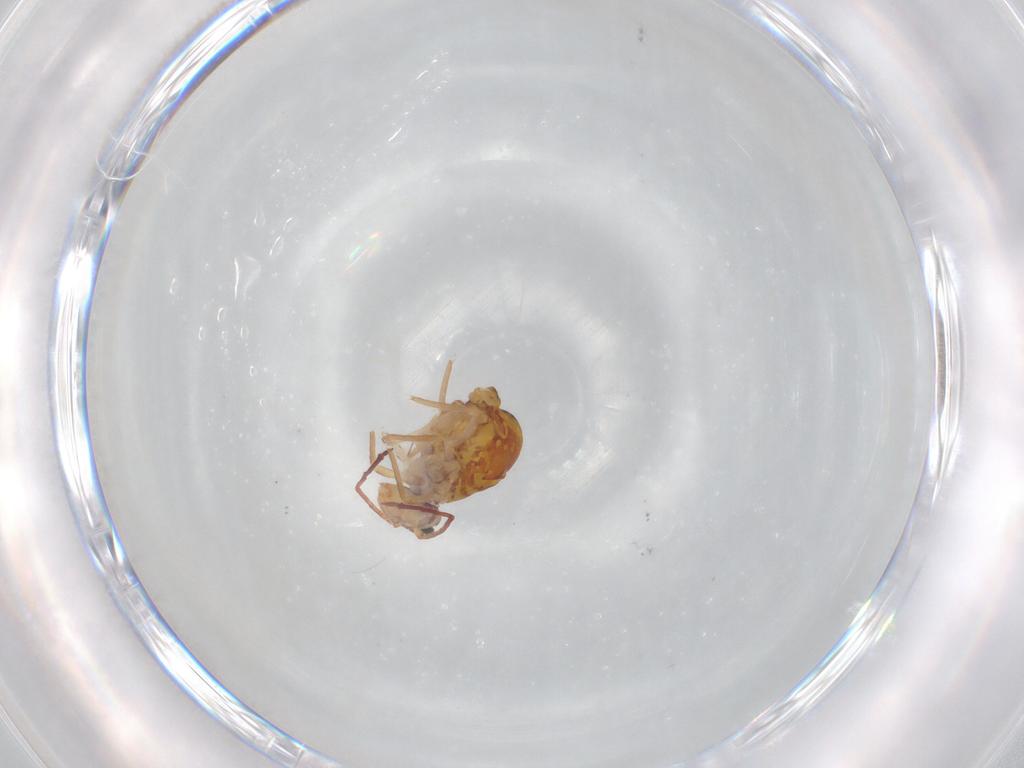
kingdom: Animalia
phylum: Arthropoda
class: Collembola
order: Symphypleona
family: Dicyrtomidae
